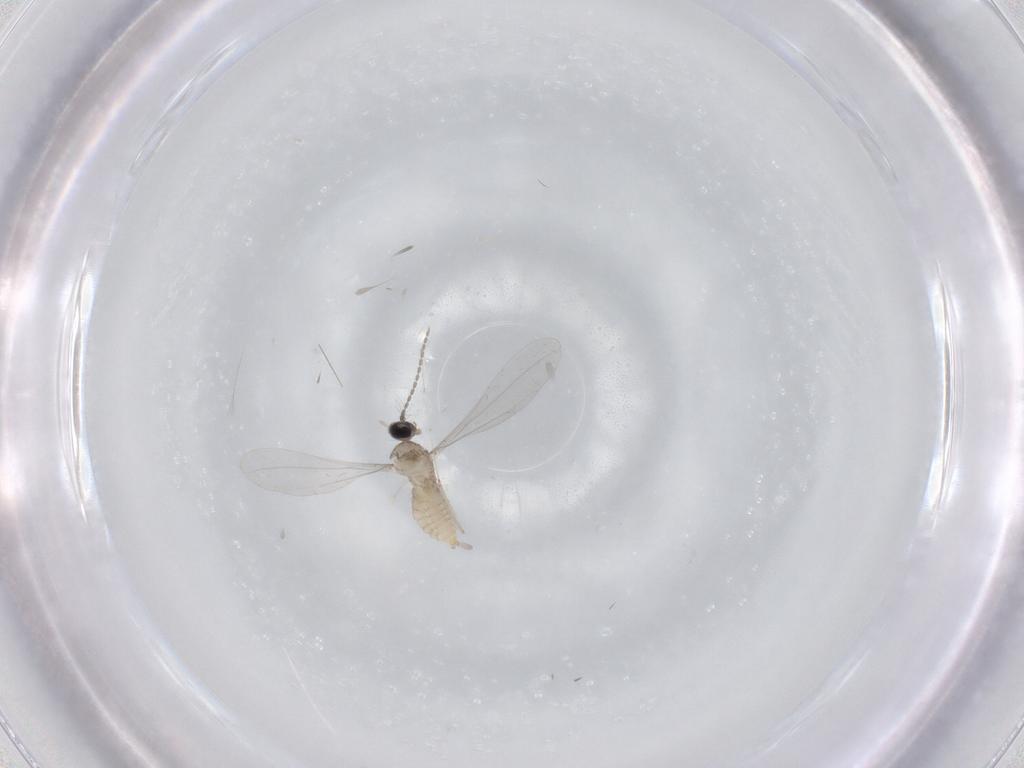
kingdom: Animalia
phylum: Arthropoda
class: Insecta
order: Diptera
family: Cecidomyiidae
